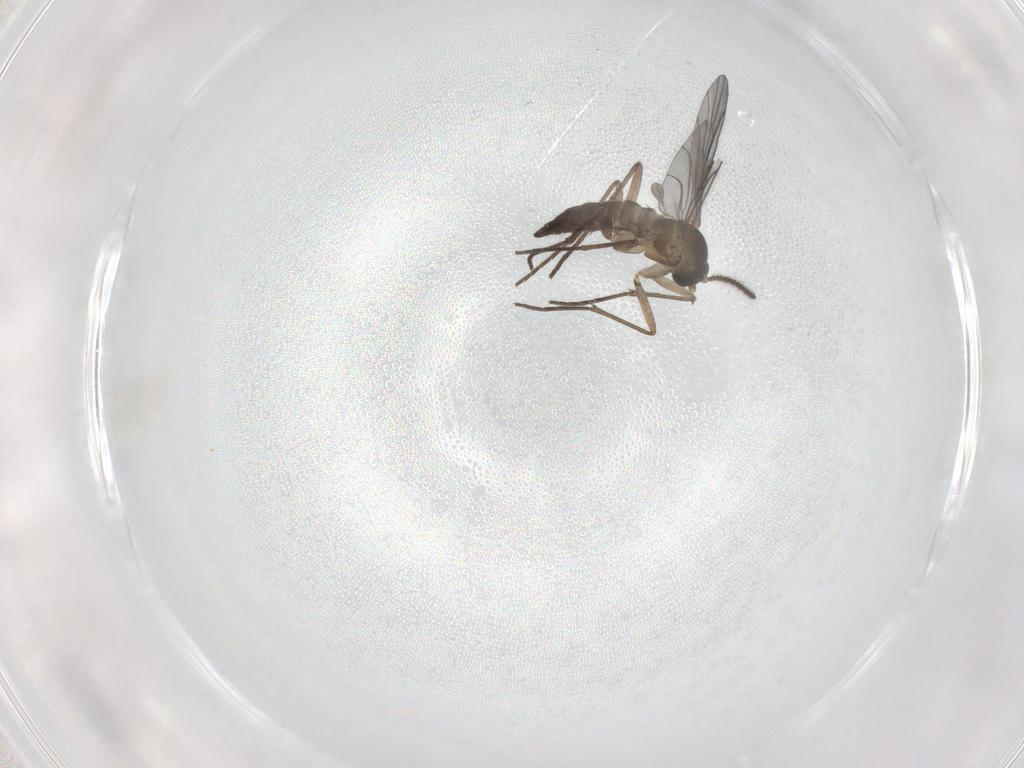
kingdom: Animalia
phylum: Arthropoda
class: Insecta
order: Diptera
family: Sciaridae
